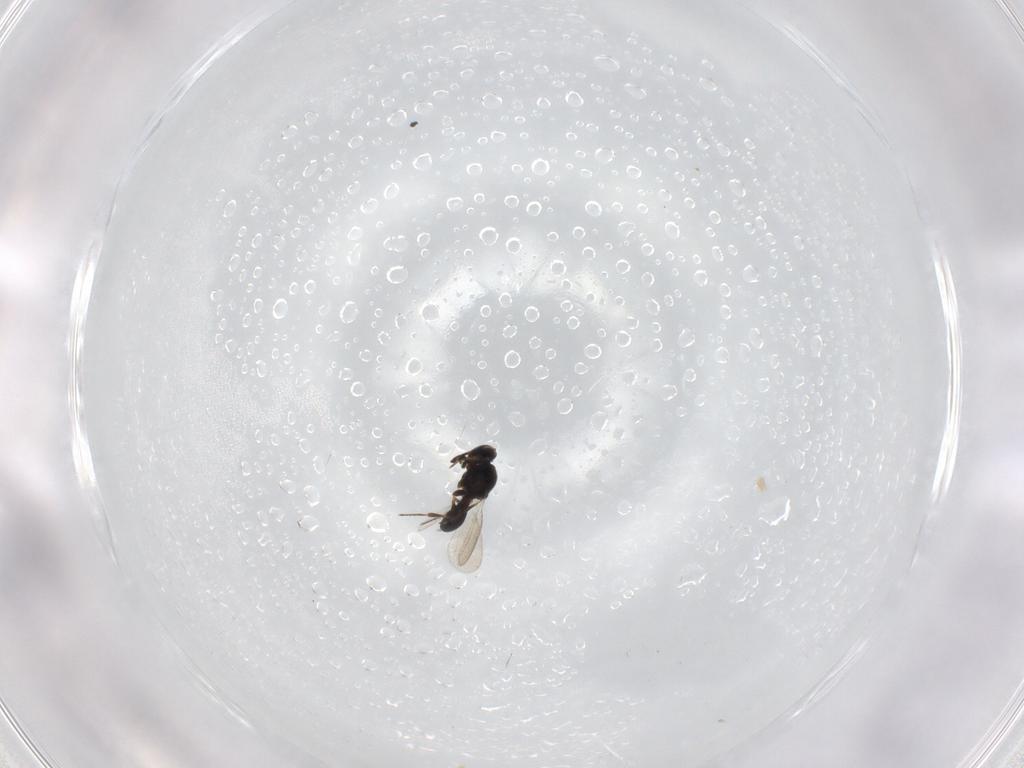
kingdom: Animalia
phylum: Arthropoda
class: Insecta
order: Hymenoptera
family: Platygastridae
